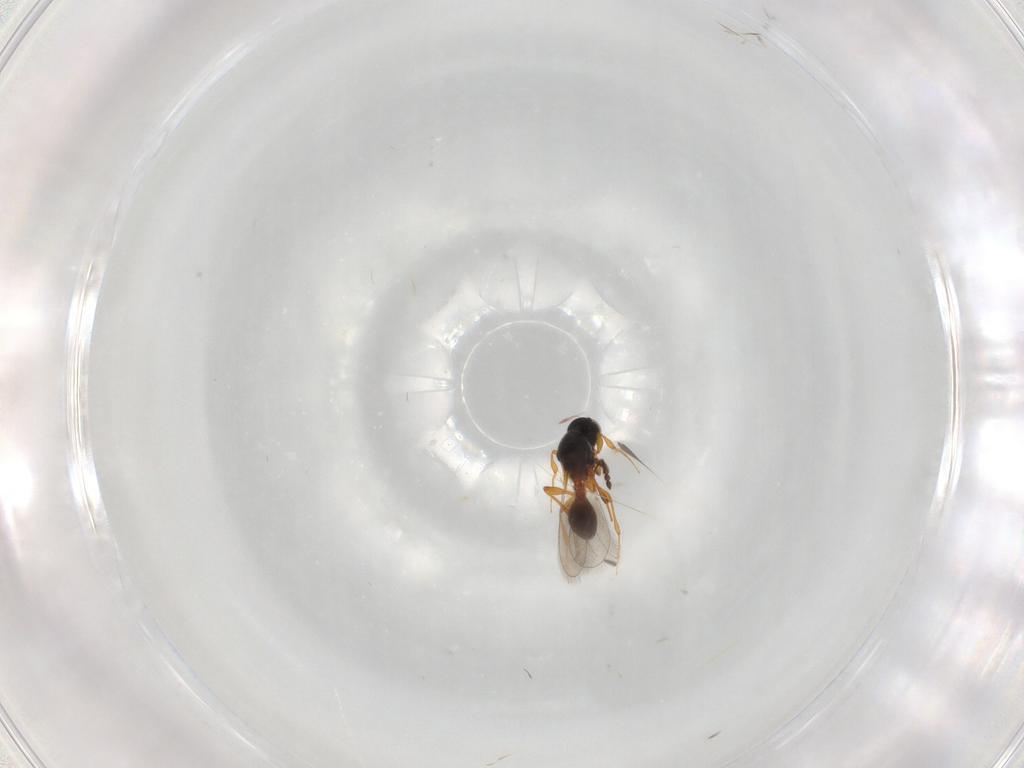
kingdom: Animalia
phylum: Arthropoda
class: Insecta
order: Hymenoptera
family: Platygastridae
